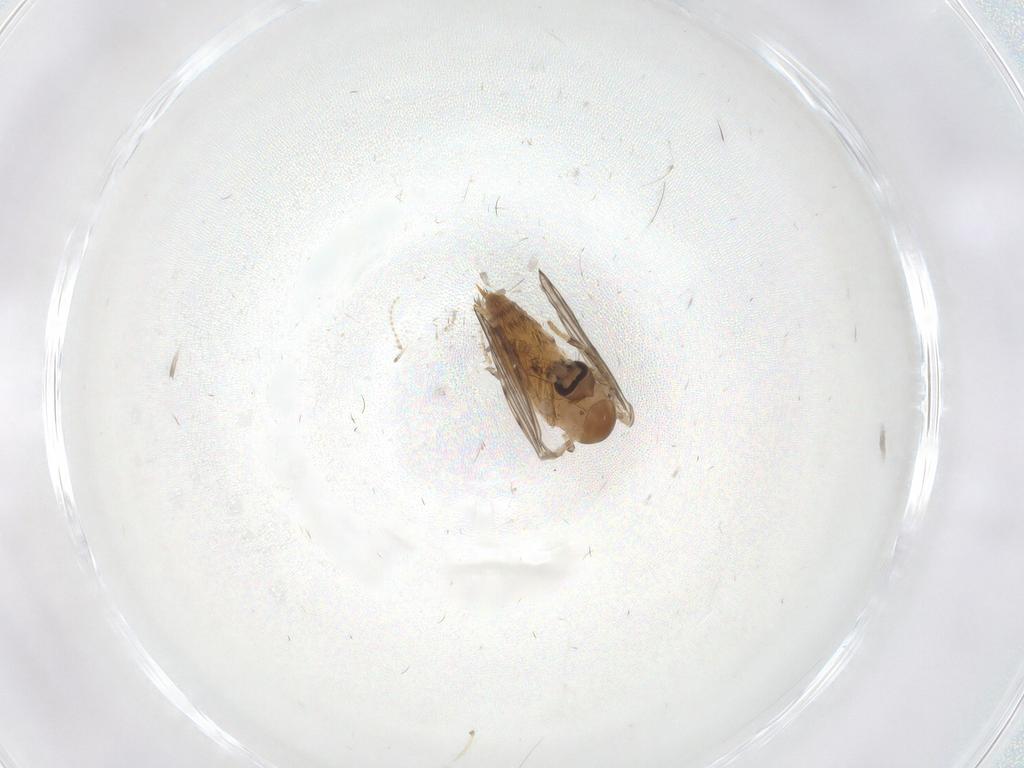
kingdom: Animalia
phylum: Arthropoda
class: Insecta
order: Diptera
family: Psychodidae
